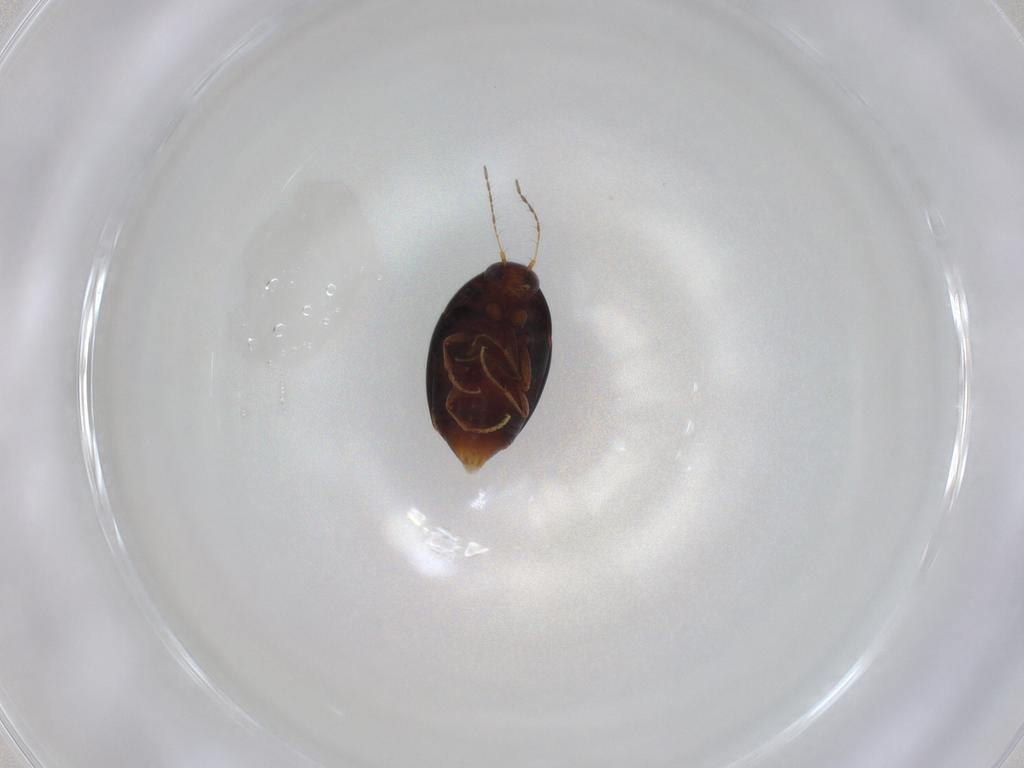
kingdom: Animalia
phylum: Arthropoda
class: Insecta
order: Coleoptera
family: Staphylinidae
